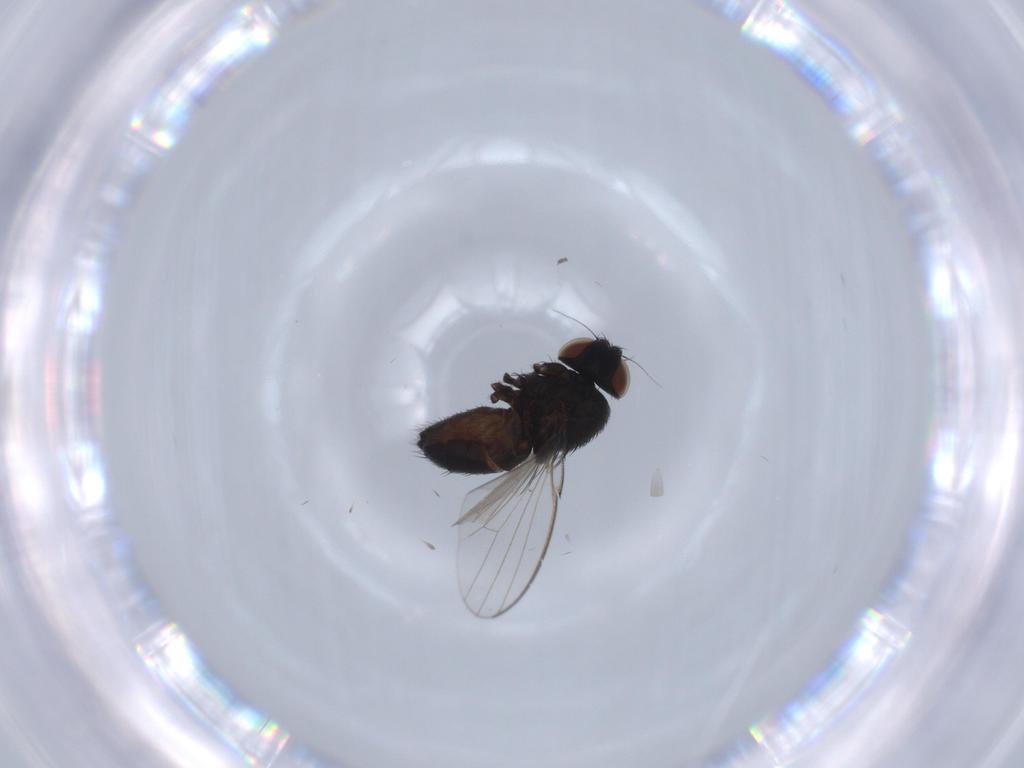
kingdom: Animalia
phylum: Arthropoda
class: Insecta
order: Diptera
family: Milichiidae
